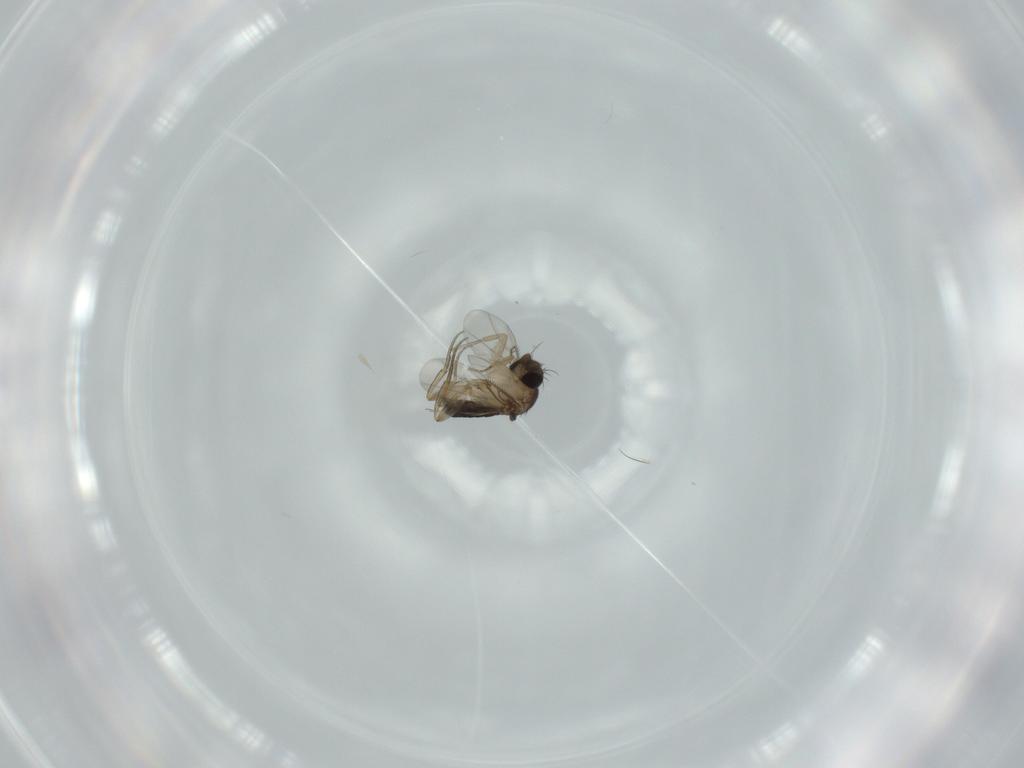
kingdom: Animalia
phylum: Arthropoda
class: Insecta
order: Diptera
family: Phoridae
